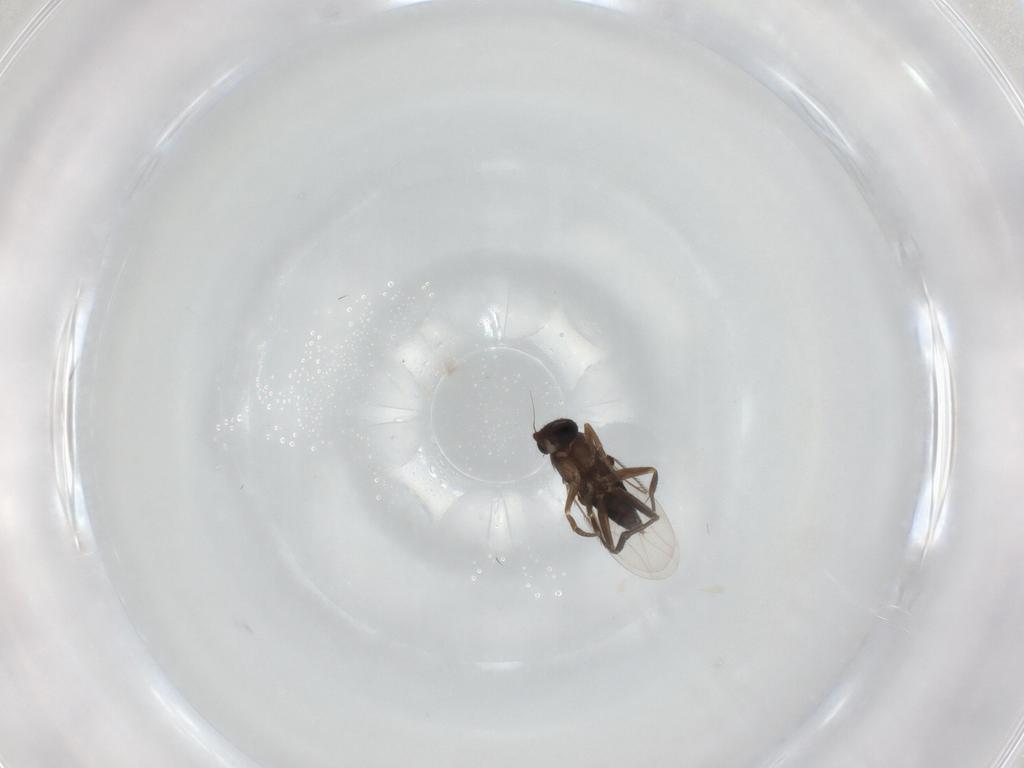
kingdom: Animalia
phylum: Arthropoda
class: Insecta
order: Diptera
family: Phoridae
